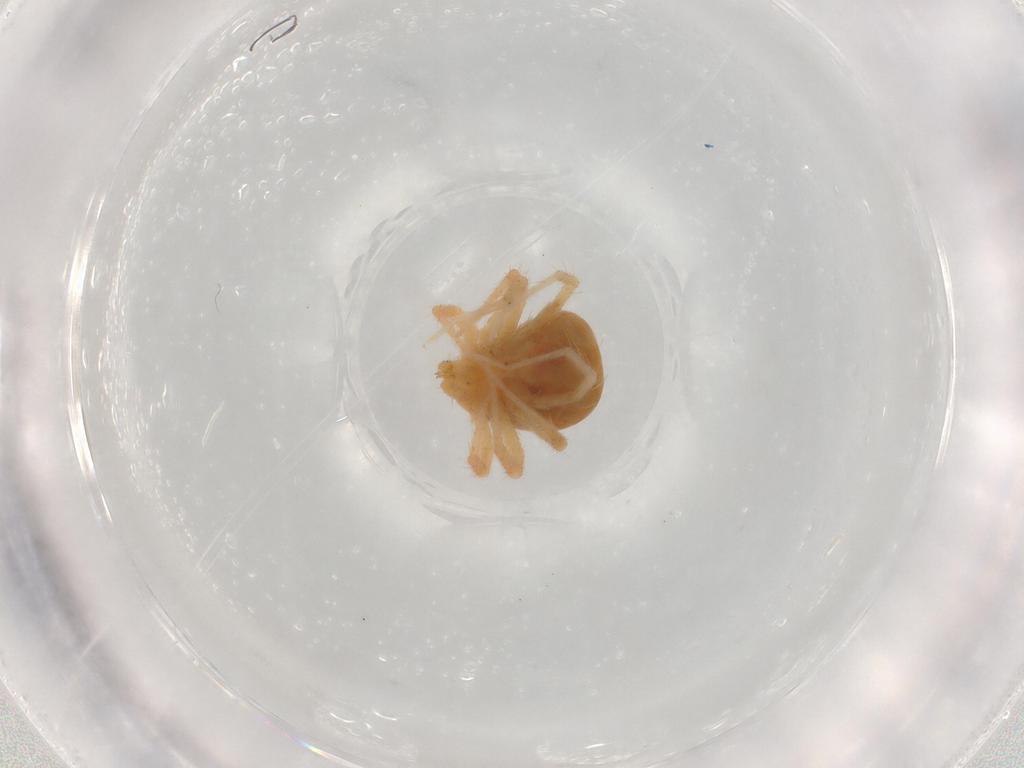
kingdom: Animalia
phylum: Arthropoda
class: Arachnida
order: Trombidiformes
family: Anystidae
